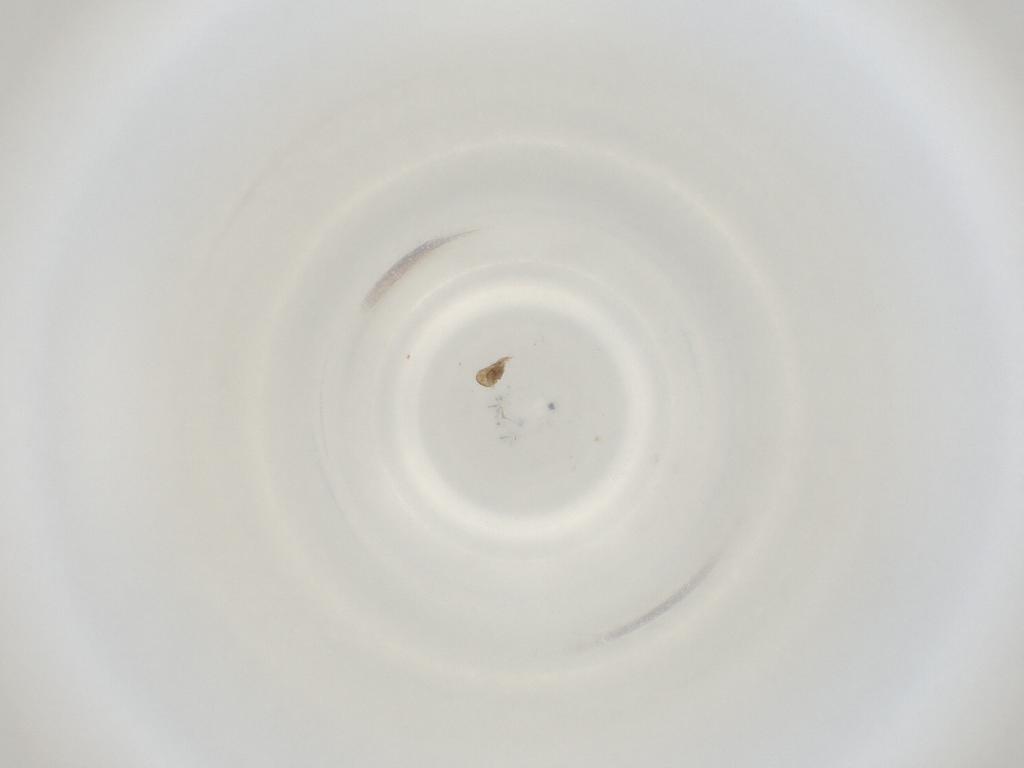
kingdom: Animalia
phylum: Arthropoda
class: Insecta
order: Diptera
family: Cecidomyiidae
